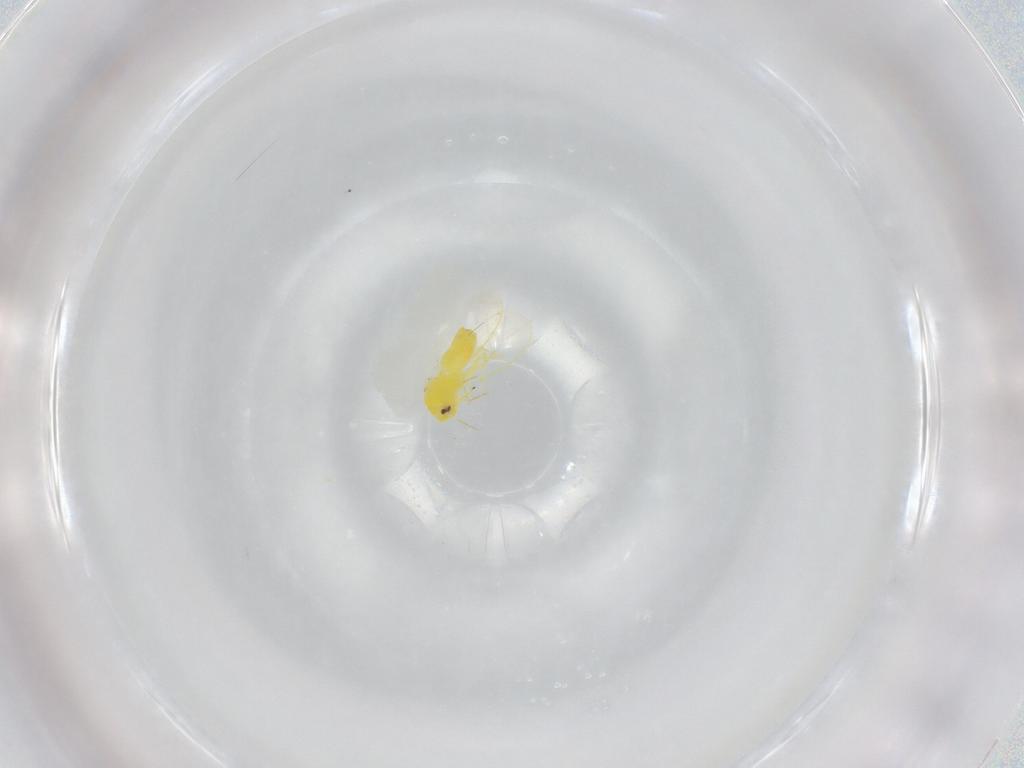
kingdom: Animalia
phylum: Arthropoda
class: Insecta
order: Hemiptera
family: Aleyrodidae
